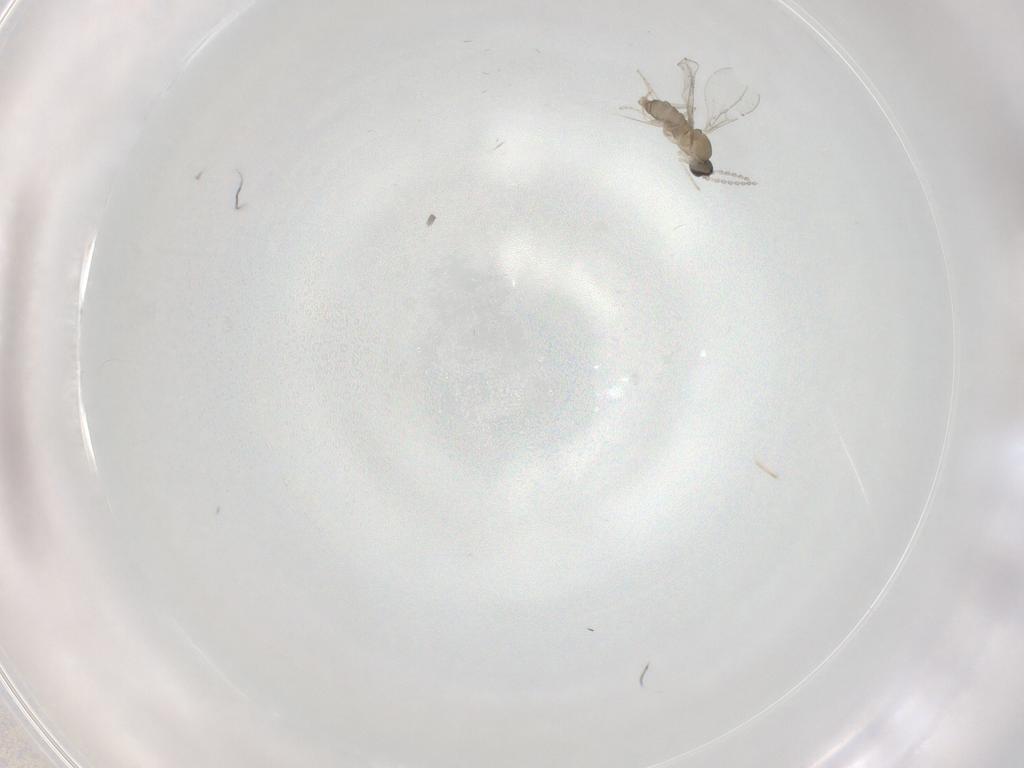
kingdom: Animalia
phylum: Arthropoda
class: Insecta
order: Diptera
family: Cecidomyiidae
